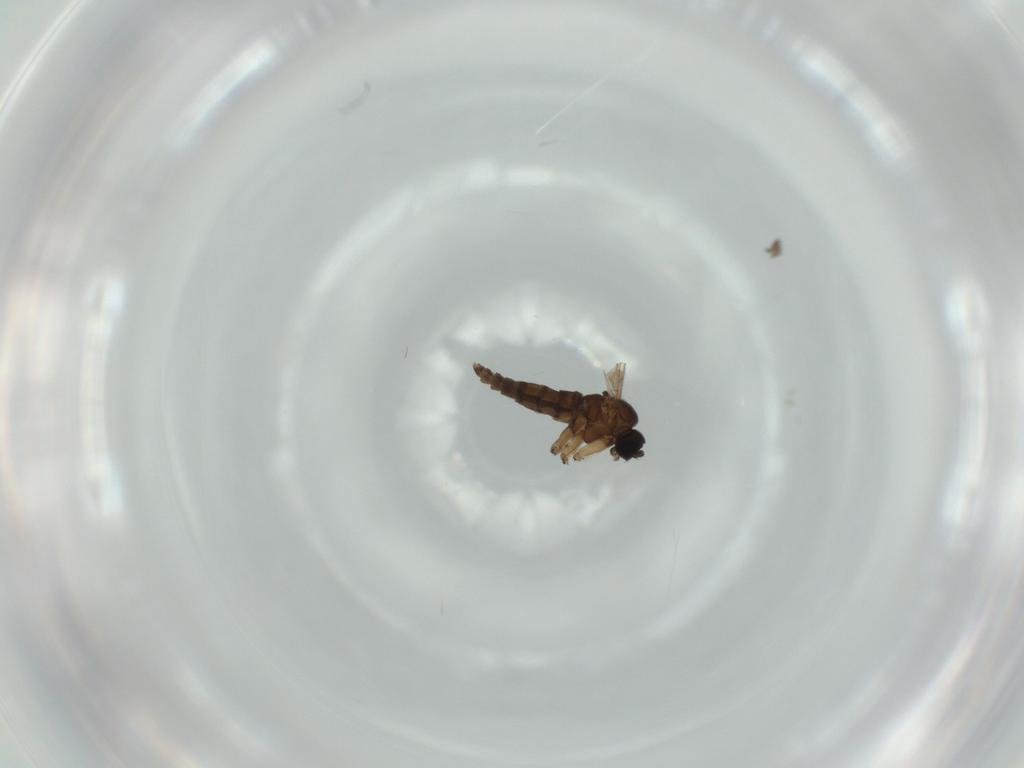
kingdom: Animalia
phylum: Arthropoda
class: Insecta
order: Diptera
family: Sciaridae
